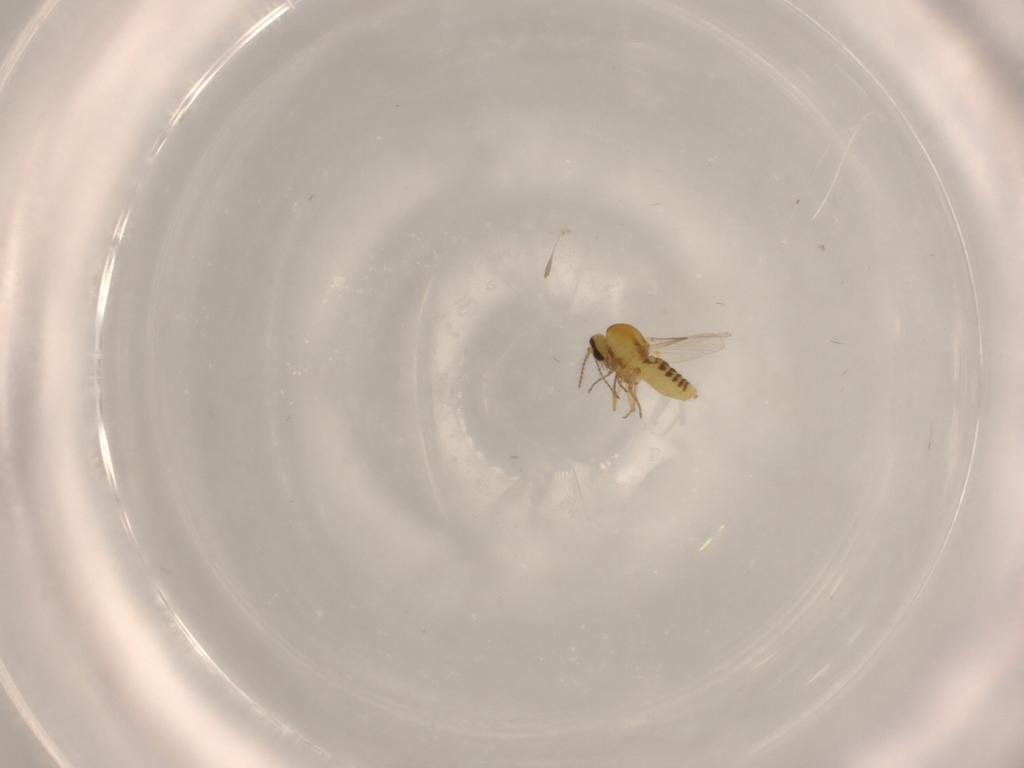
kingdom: Animalia
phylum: Arthropoda
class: Insecta
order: Diptera
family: Ceratopogonidae
